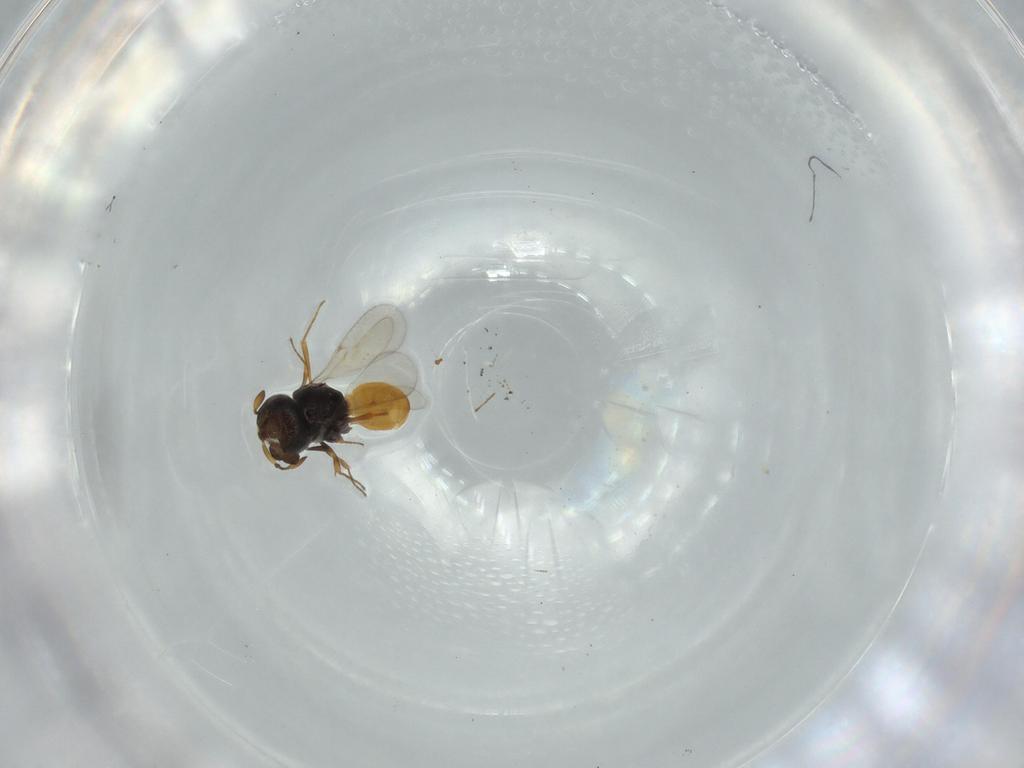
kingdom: Animalia
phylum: Arthropoda
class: Insecta
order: Hymenoptera
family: Scelionidae
